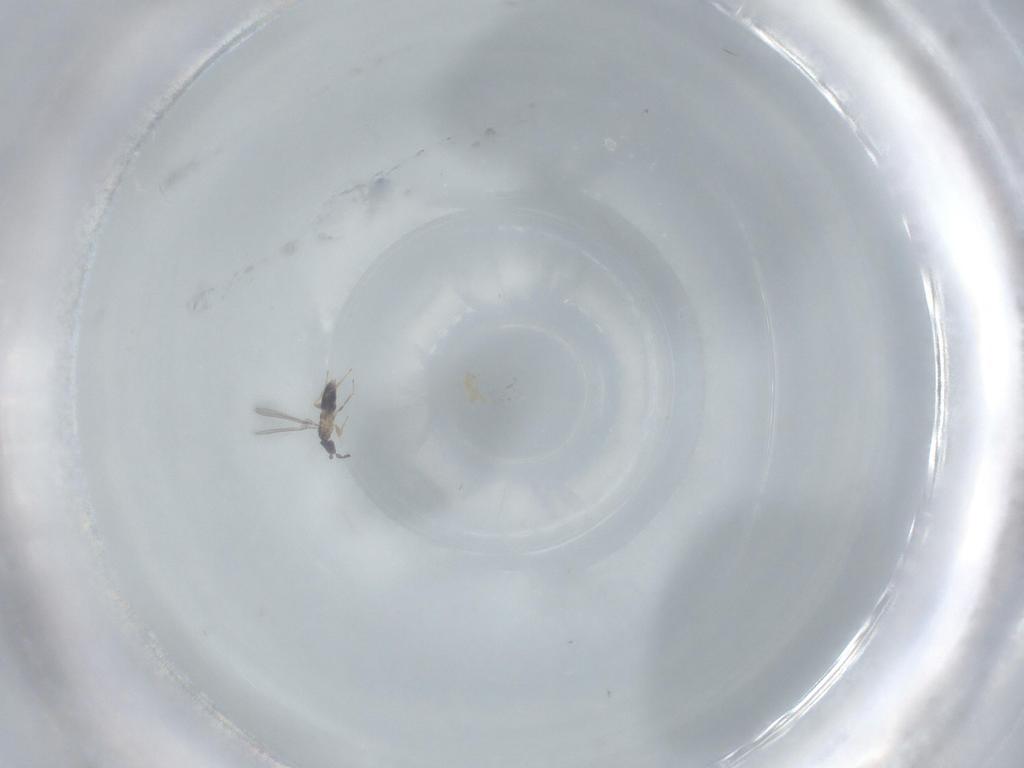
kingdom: Animalia
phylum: Arthropoda
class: Insecta
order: Hymenoptera
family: Mymaridae
